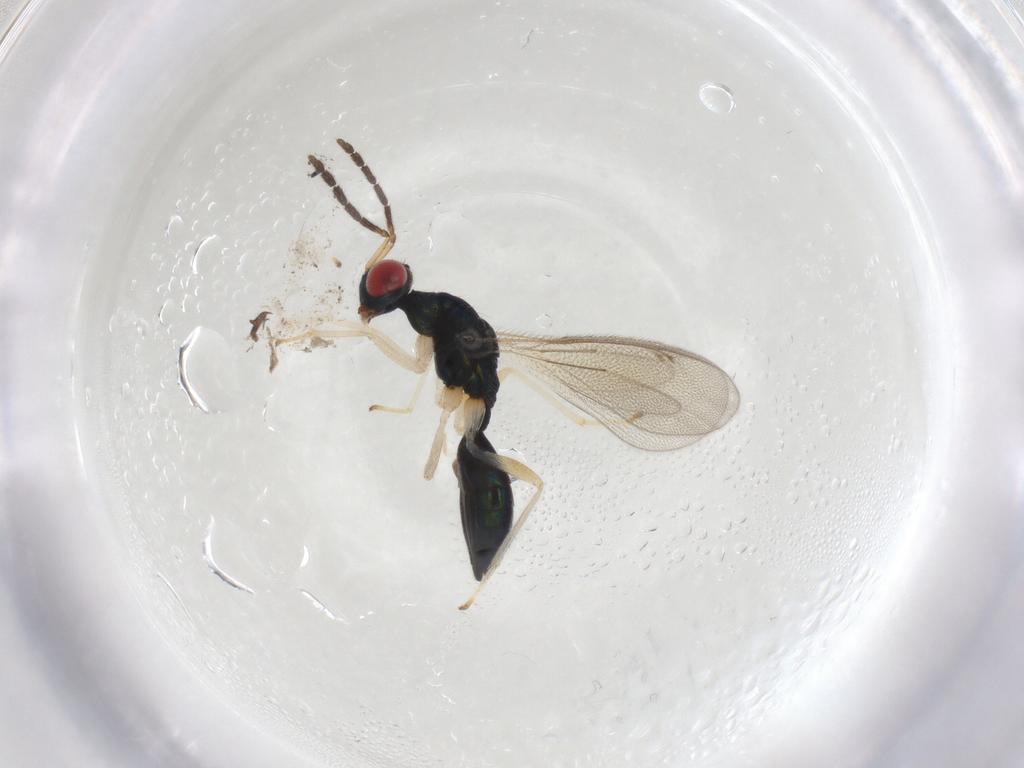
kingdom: Animalia
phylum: Arthropoda
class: Insecta
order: Hymenoptera
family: Eulophidae
